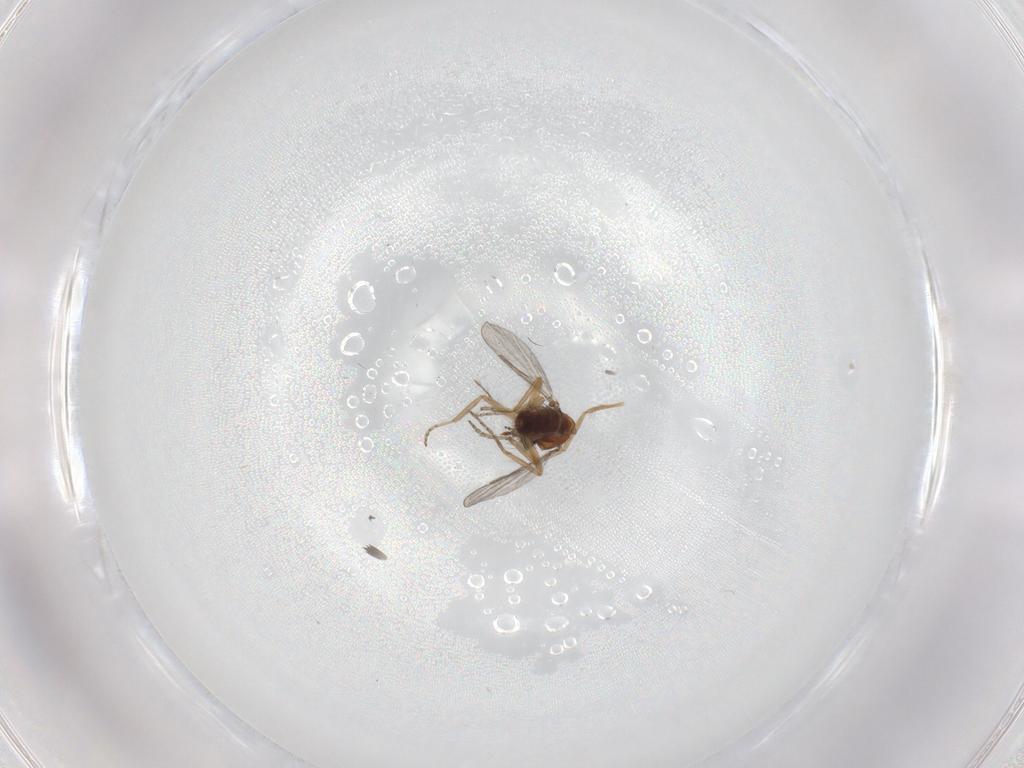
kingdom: Animalia
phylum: Arthropoda
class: Insecta
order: Diptera
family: Ceratopogonidae
